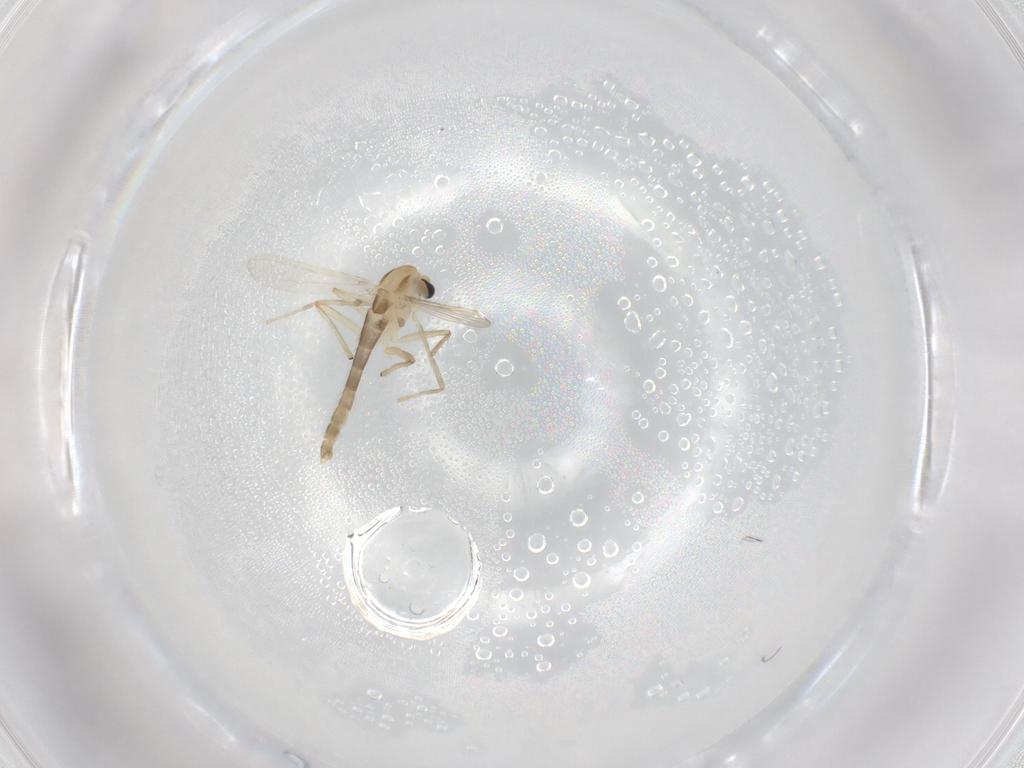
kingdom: Animalia
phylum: Arthropoda
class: Insecta
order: Diptera
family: Chironomidae
